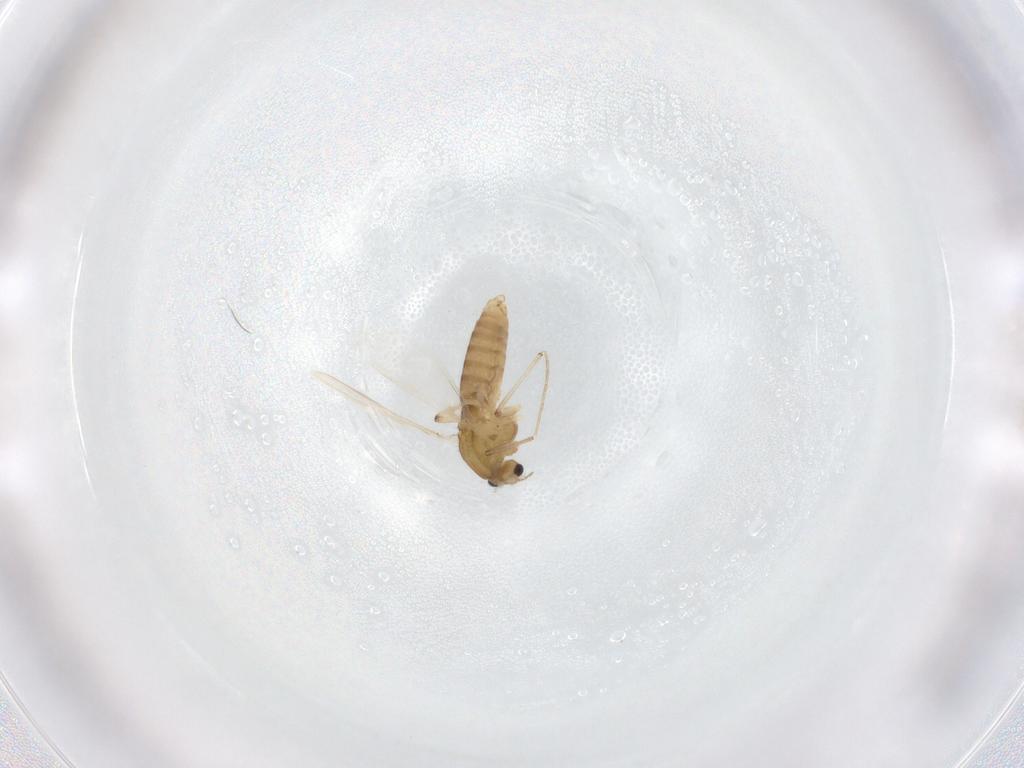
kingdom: Animalia
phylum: Arthropoda
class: Insecta
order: Diptera
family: Chironomidae
